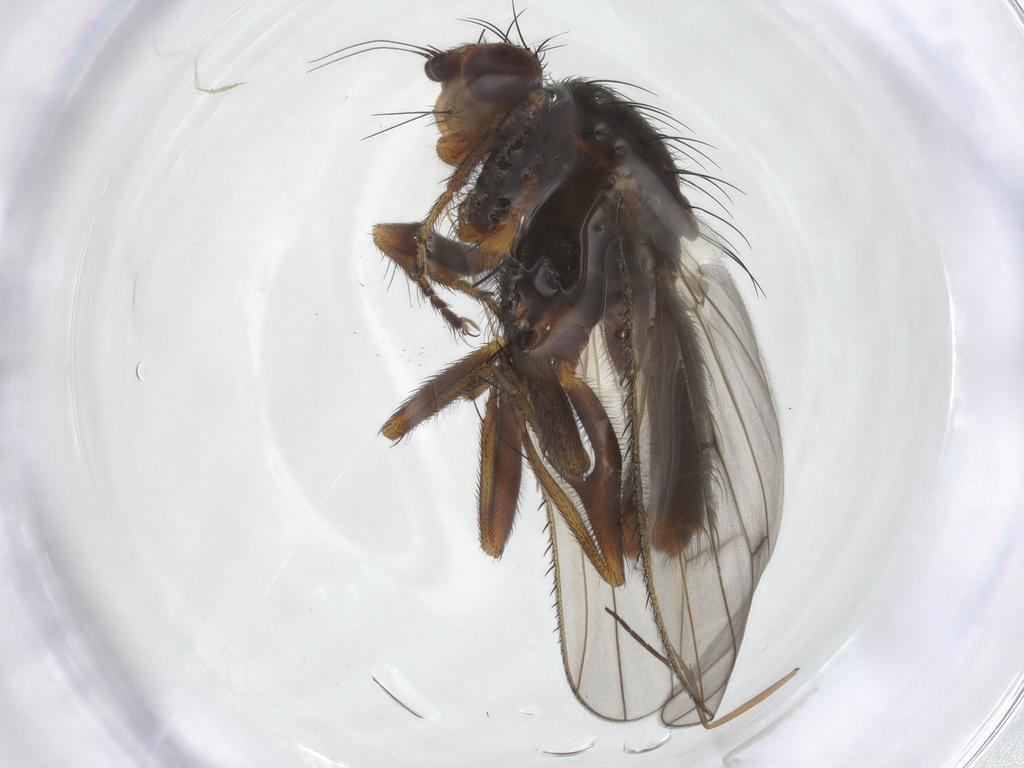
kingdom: Animalia
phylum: Arthropoda
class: Insecta
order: Diptera
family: Heleomyzidae
